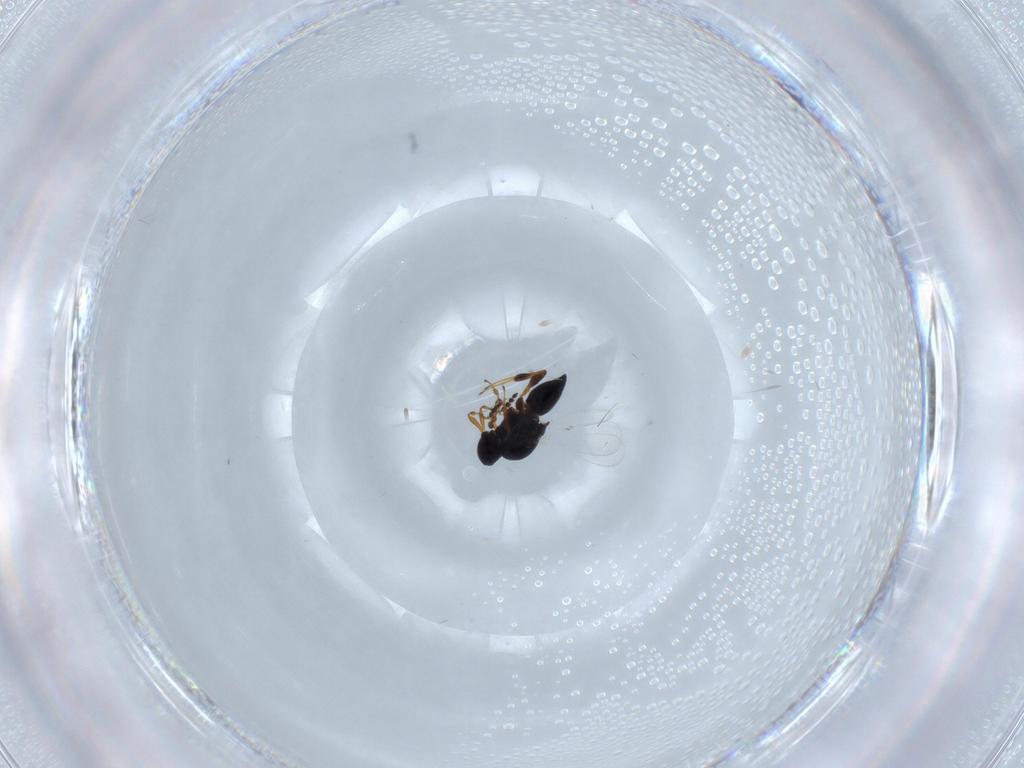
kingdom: Animalia
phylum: Arthropoda
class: Insecta
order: Hymenoptera
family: Platygastridae
